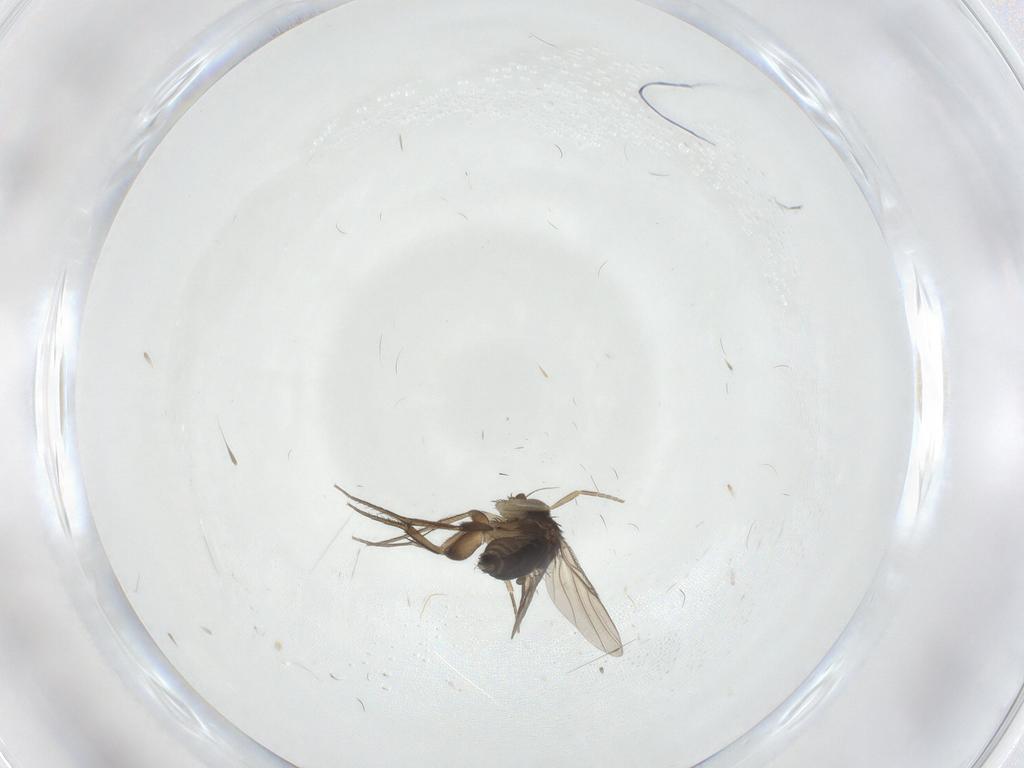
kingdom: Animalia
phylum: Arthropoda
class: Insecta
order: Diptera
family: Phoridae
